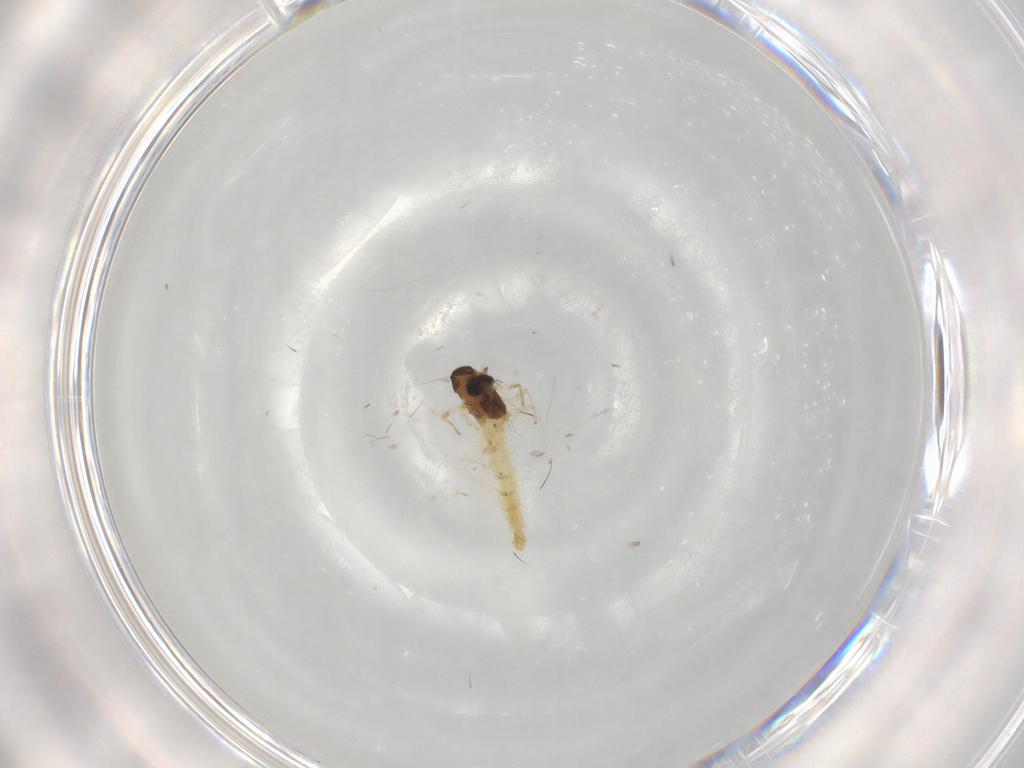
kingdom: Animalia
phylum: Arthropoda
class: Insecta
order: Diptera
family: Chironomidae
